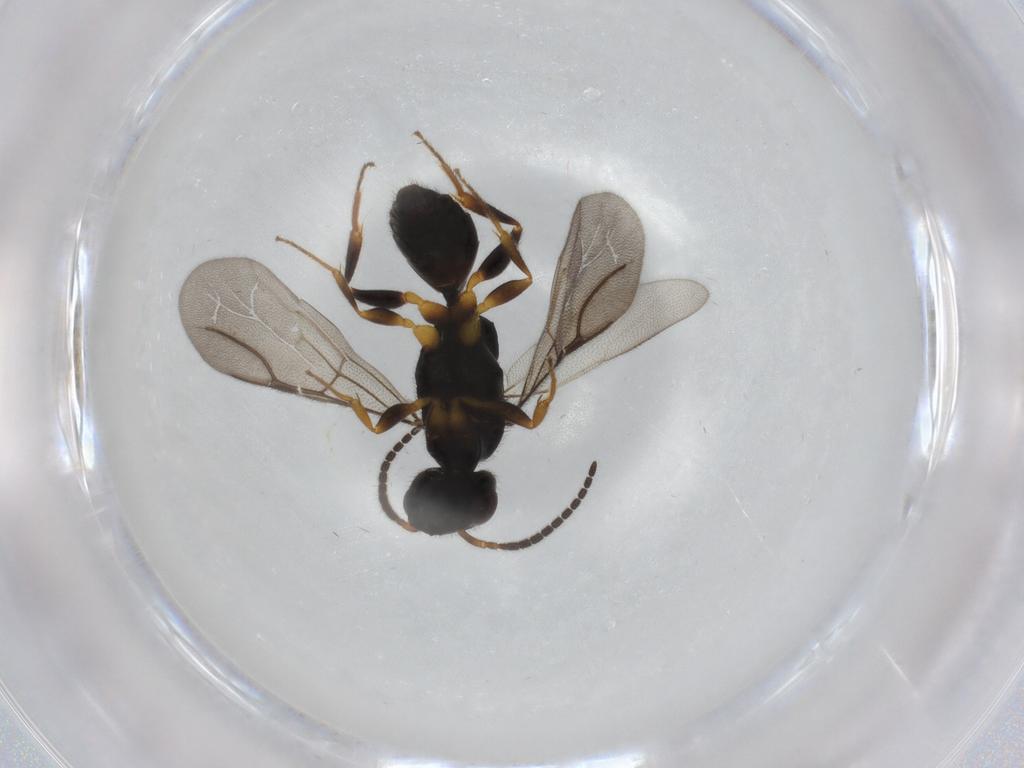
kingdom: Animalia
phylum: Arthropoda
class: Insecta
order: Hymenoptera
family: Bethylidae
